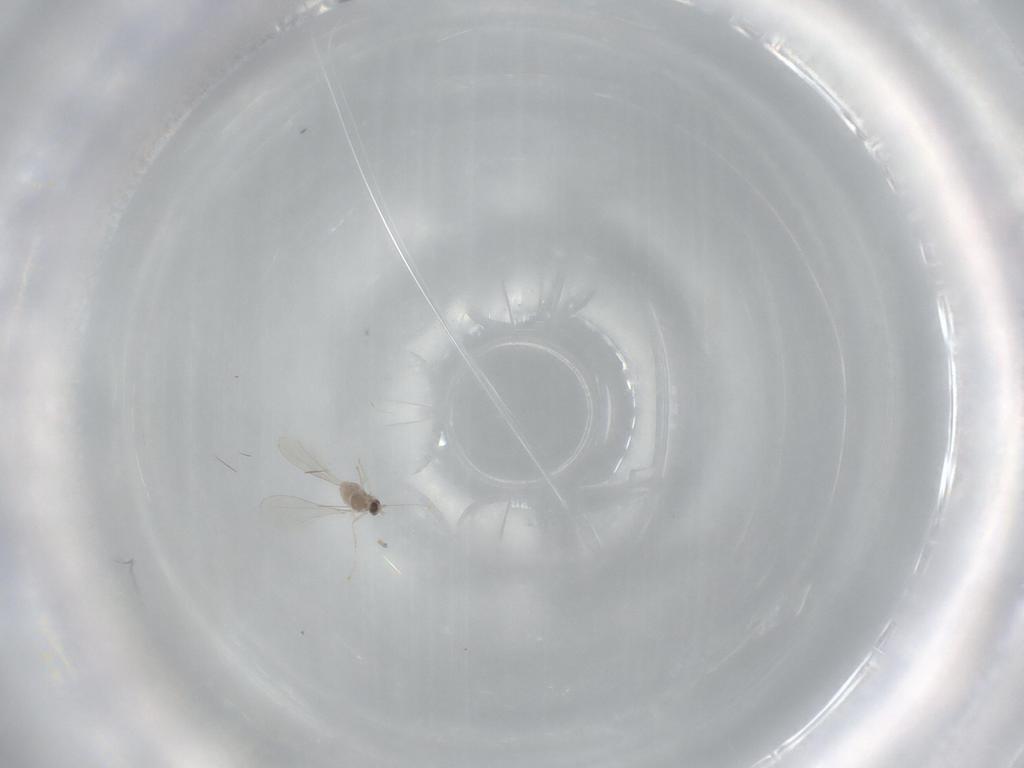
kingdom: Animalia
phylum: Arthropoda
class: Insecta
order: Diptera
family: Cecidomyiidae
